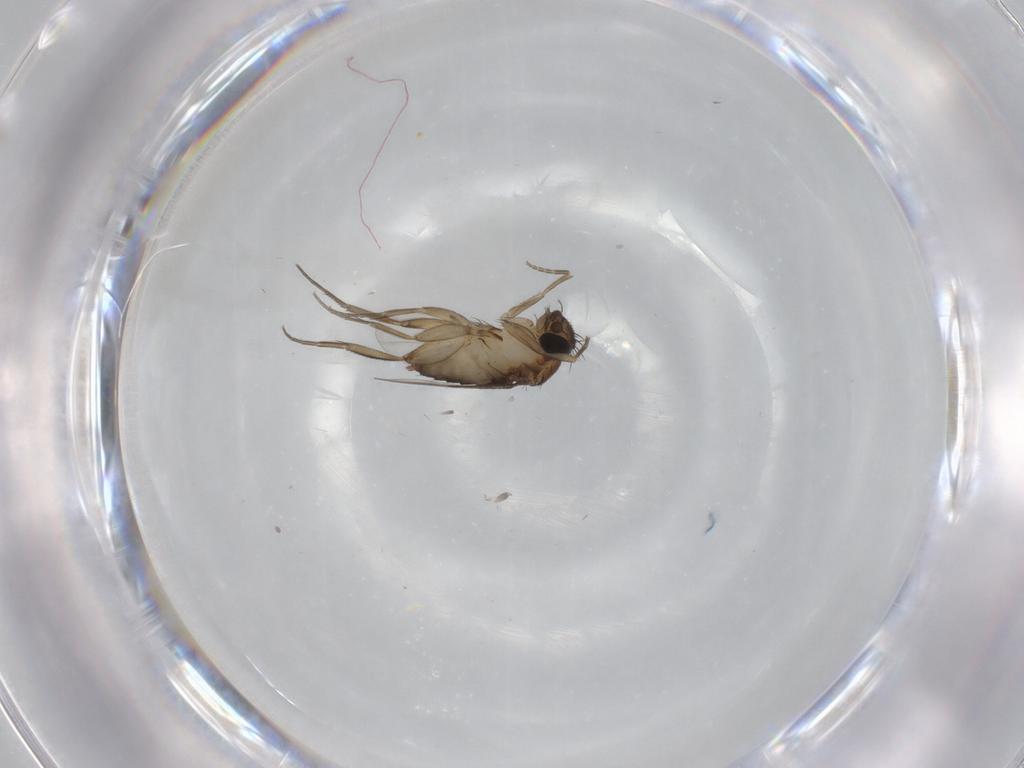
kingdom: Animalia
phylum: Arthropoda
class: Insecta
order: Diptera
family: Phoridae
